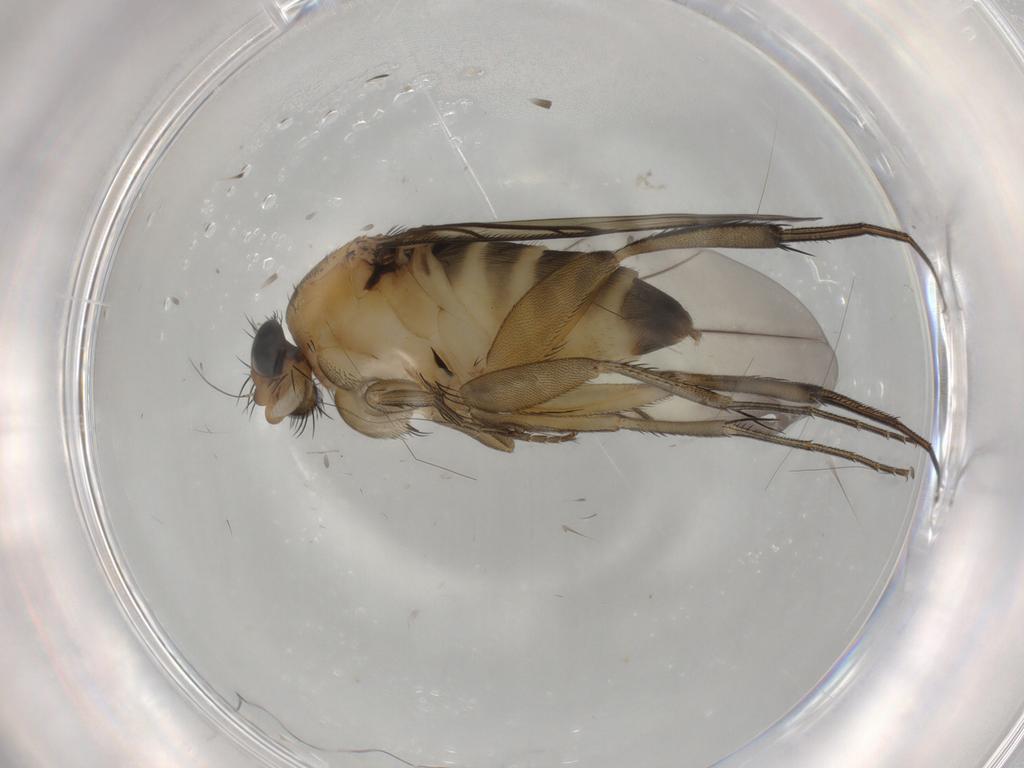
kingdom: Animalia
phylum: Arthropoda
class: Insecta
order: Diptera
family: Phoridae
